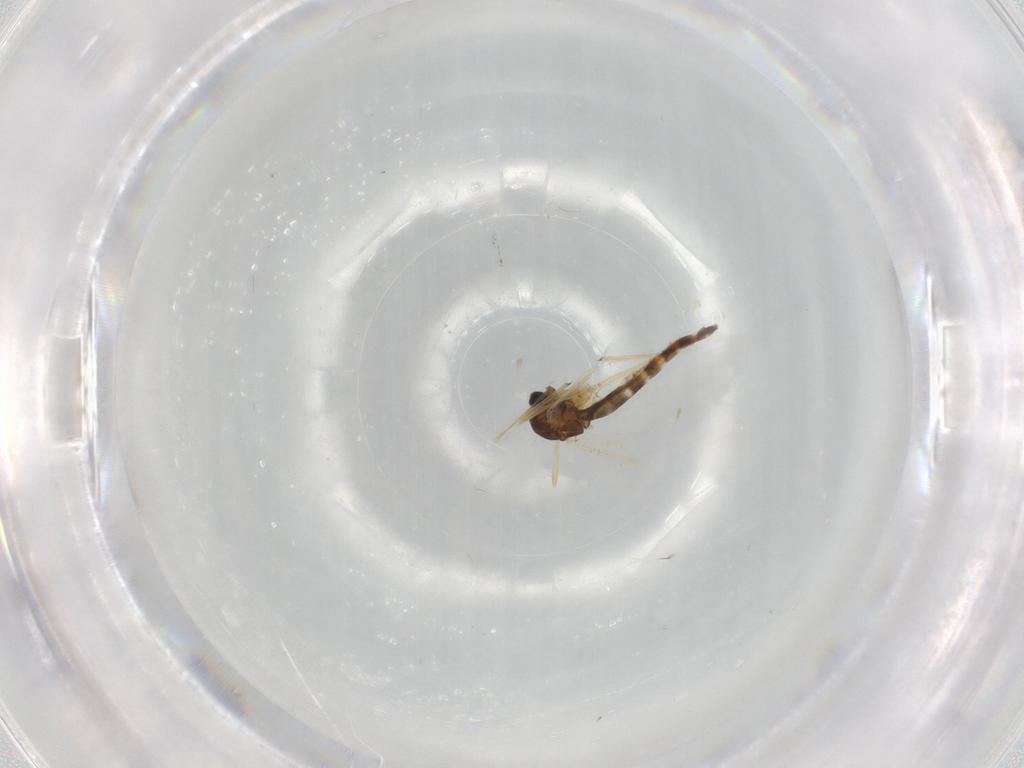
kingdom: Animalia
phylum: Arthropoda
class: Insecta
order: Diptera
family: Chironomidae
